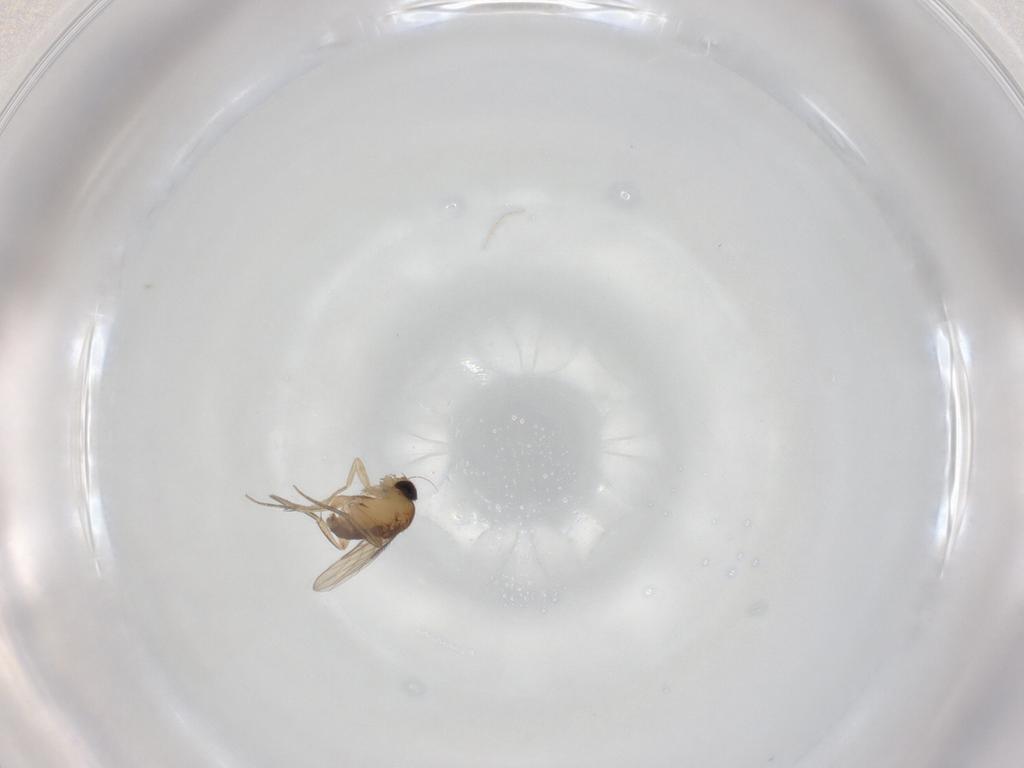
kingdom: Animalia
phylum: Arthropoda
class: Insecta
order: Diptera
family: Phoridae
